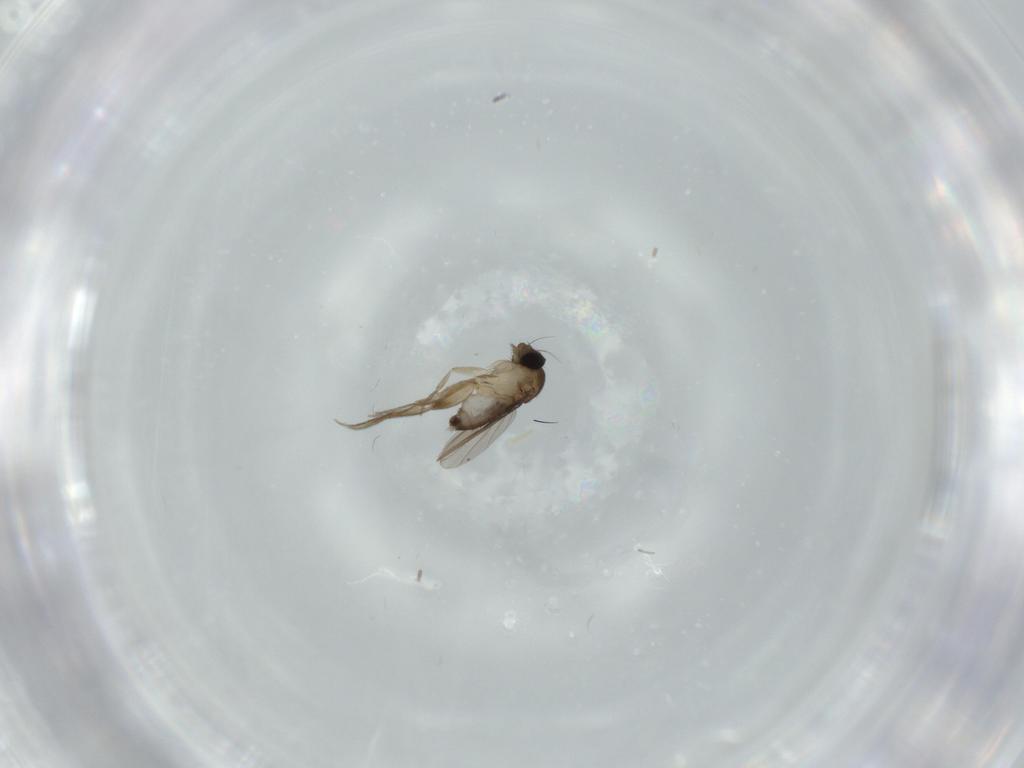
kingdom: Animalia
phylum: Arthropoda
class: Insecta
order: Diptera
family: Phoridae
